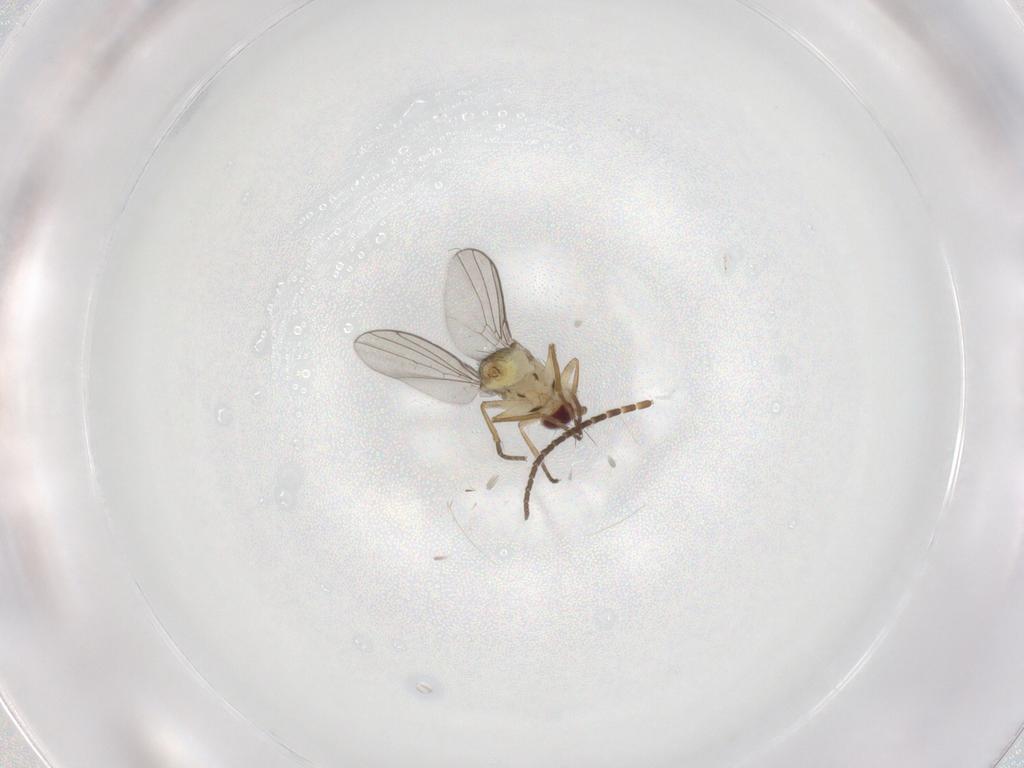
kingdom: Animalia
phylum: Arthropoda
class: Insecta
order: Diptera
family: Sciaridae
